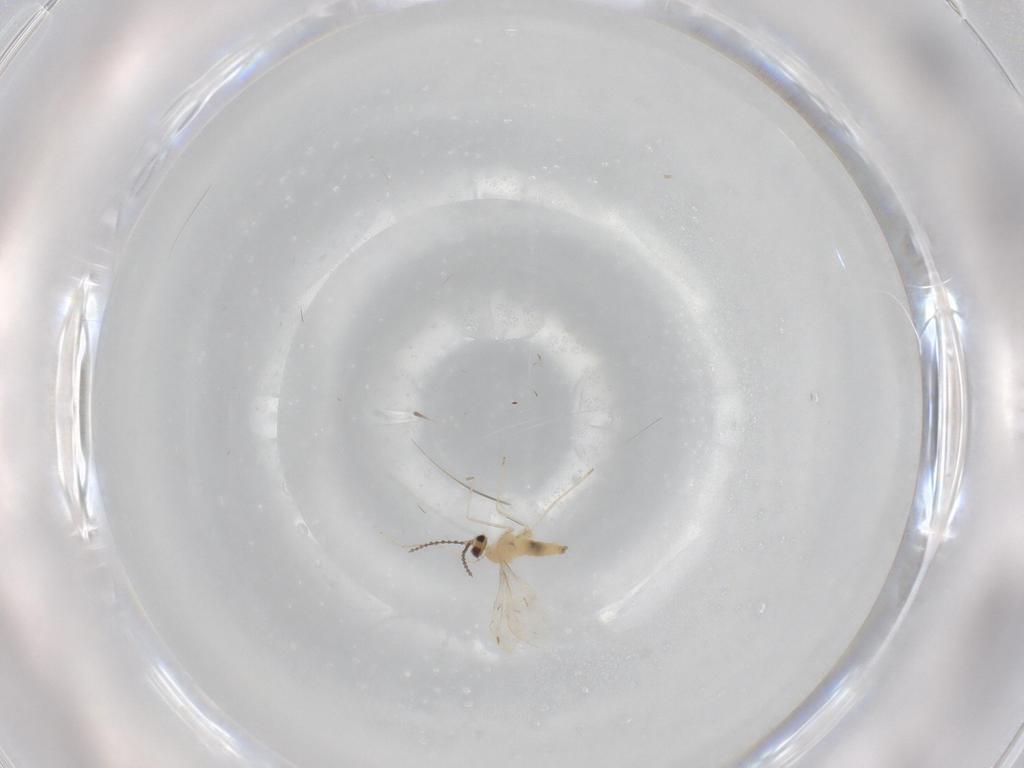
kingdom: Animalia
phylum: Arthropoda
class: Insecta
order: Diptera
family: Cecidomyiidae
